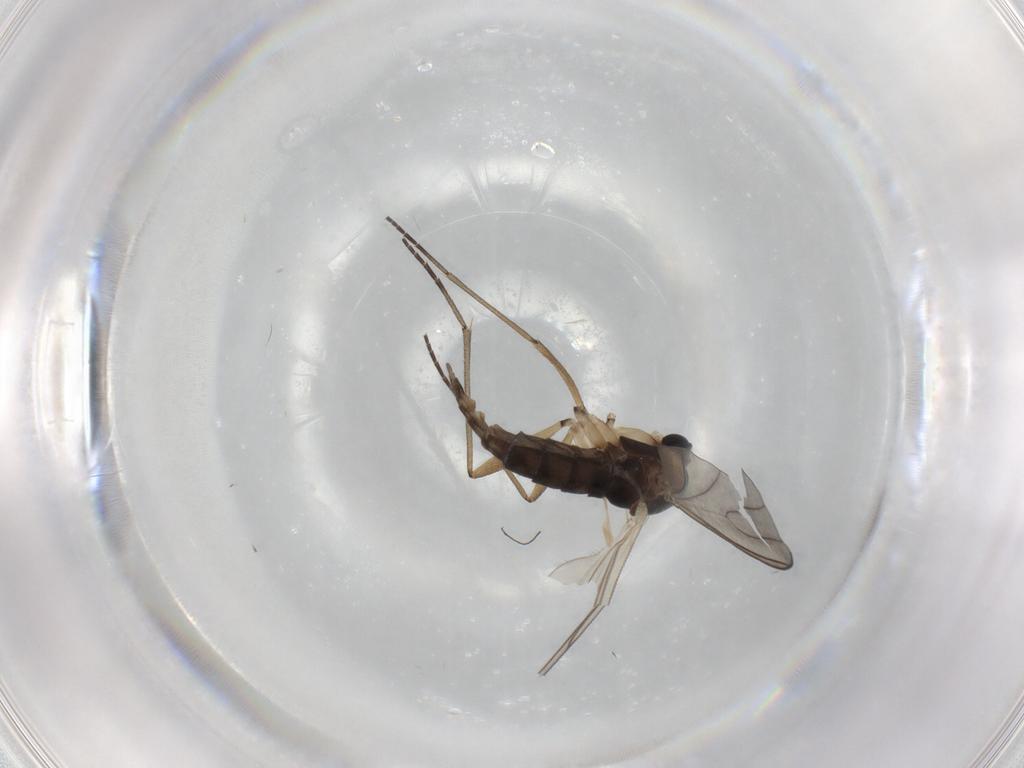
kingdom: Animalia
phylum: Arthropoda
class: Insecta
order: Diptera
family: Sciaridae
